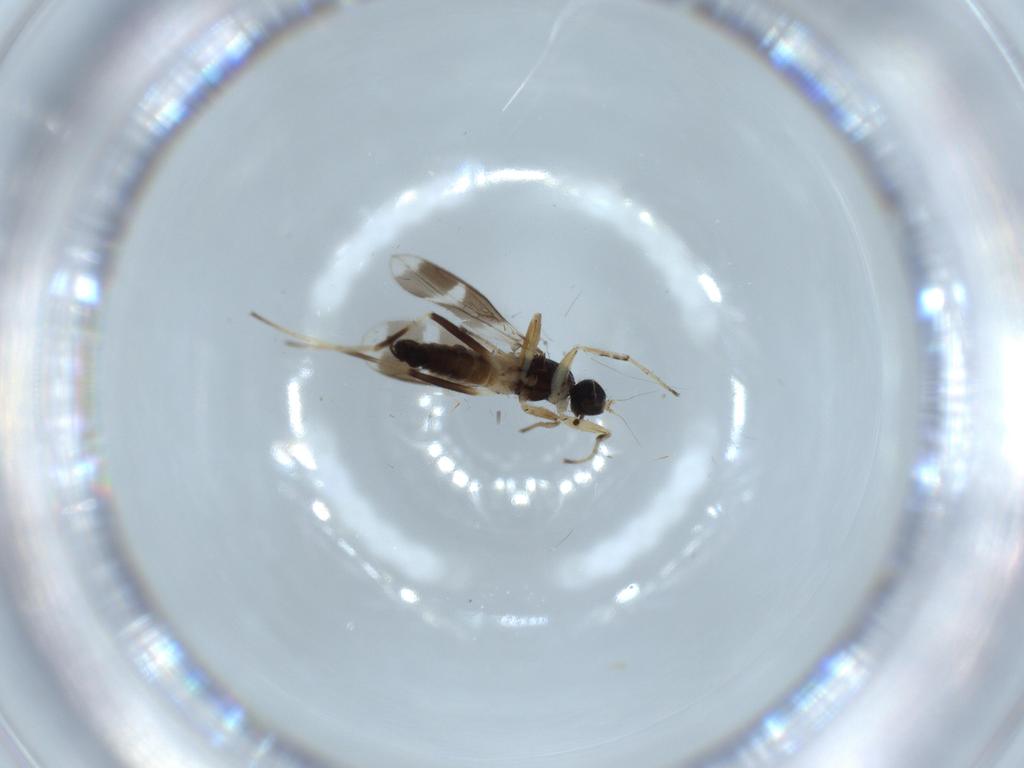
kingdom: Animalia
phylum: Arthropoda
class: Insecta
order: Diptera
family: Hybotidae
